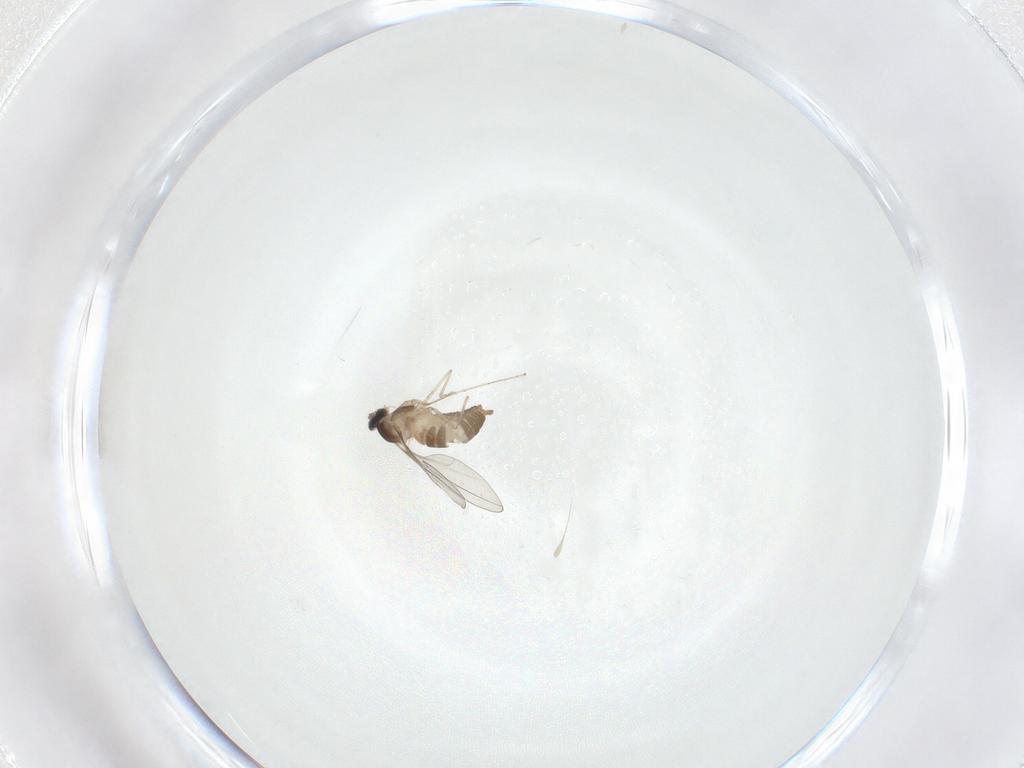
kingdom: Animalia
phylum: Arthropoda
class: Insecta
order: Diptera
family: Cecidomyiidae
